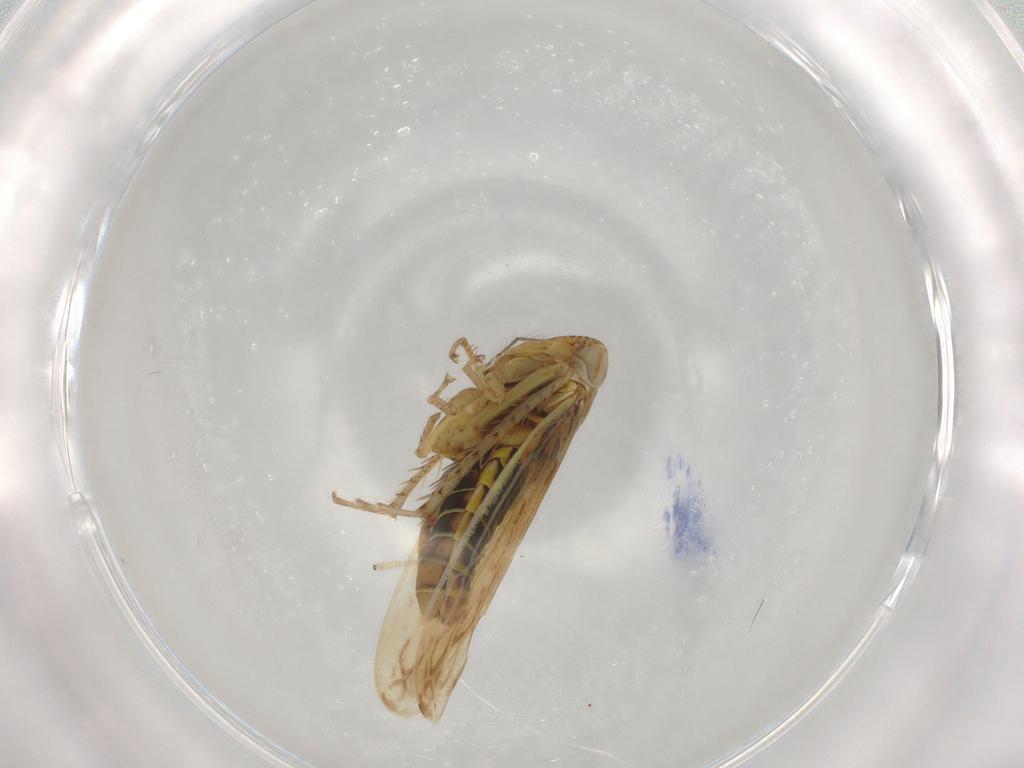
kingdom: Animalia
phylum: Arthropoda
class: Insecta
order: Hemiptera
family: Cicadellidae
